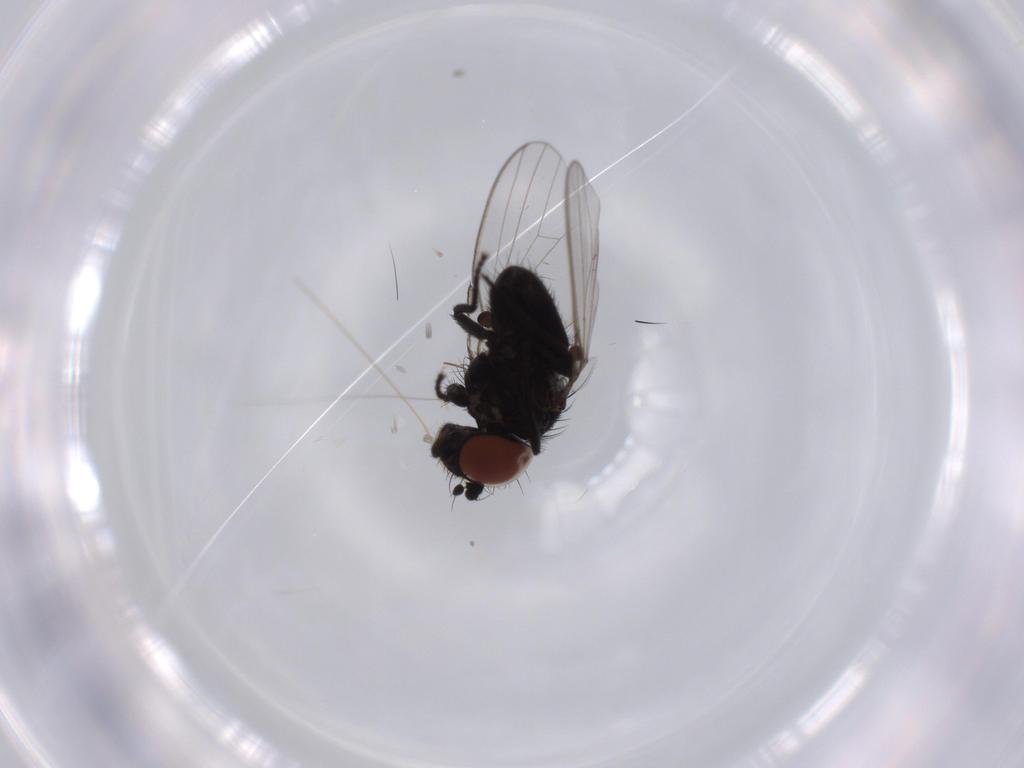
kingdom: Animalia
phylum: Arthropoda
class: Insecta
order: Diptera
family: Milichiidae
